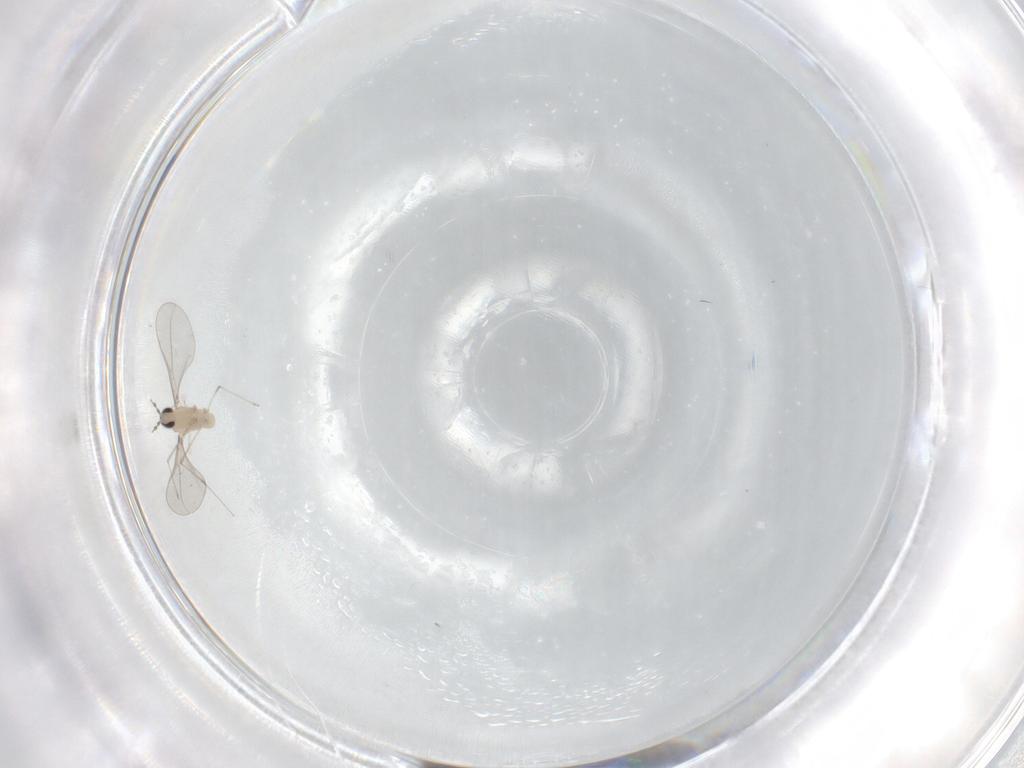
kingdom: Animalia
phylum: Arthropoda
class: Insecta
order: Diptera
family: Cecidomyiidae
